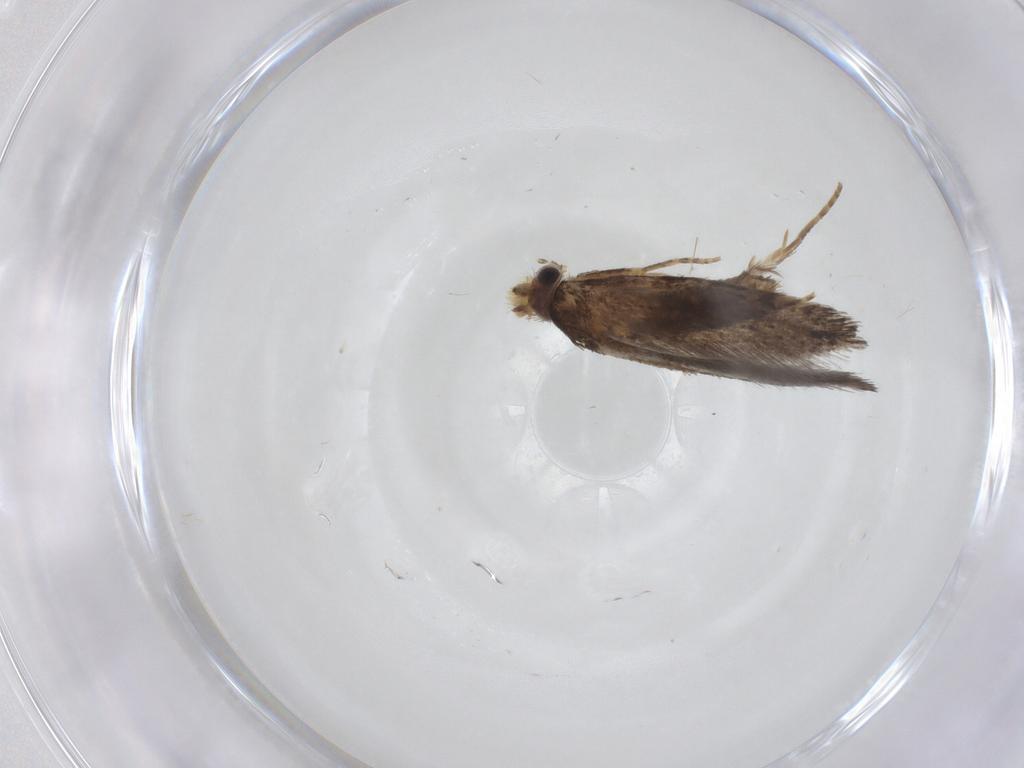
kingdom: Animalia
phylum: Arthropoda
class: Insecta
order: Lepidoptera
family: Tineidae
